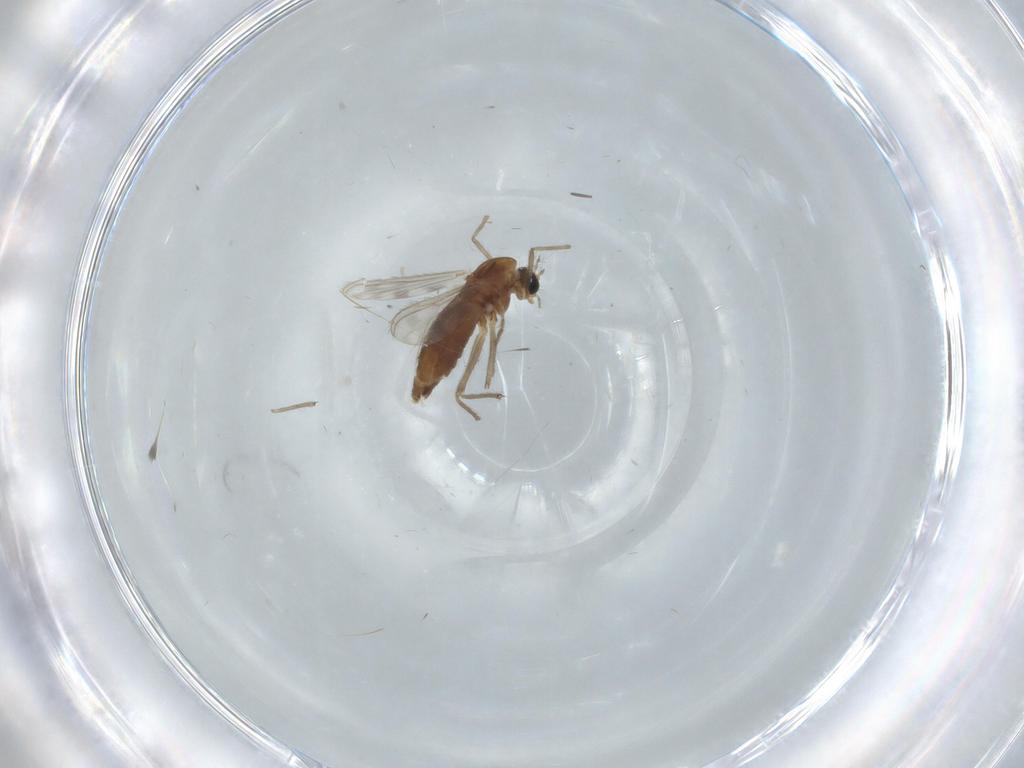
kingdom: Animalia
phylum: Arthropoda
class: Insecta
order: Diptera
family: Chironomidae
